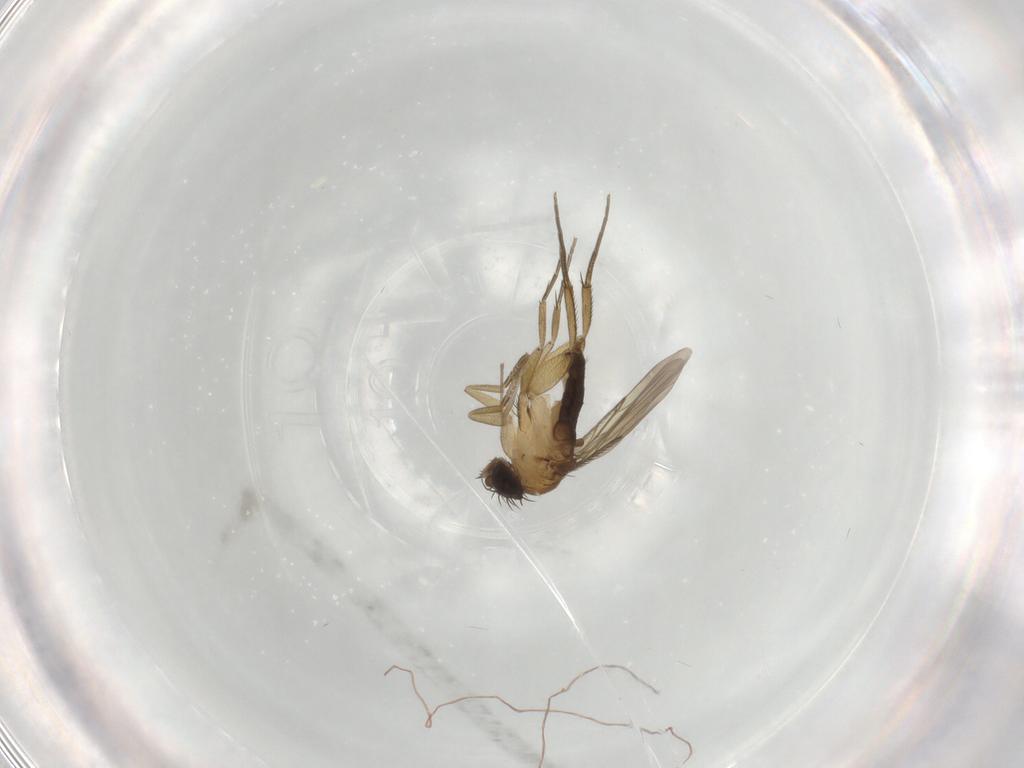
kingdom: Animalia
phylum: Arthropoda
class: Insecta
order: Diptera
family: Phoridae
